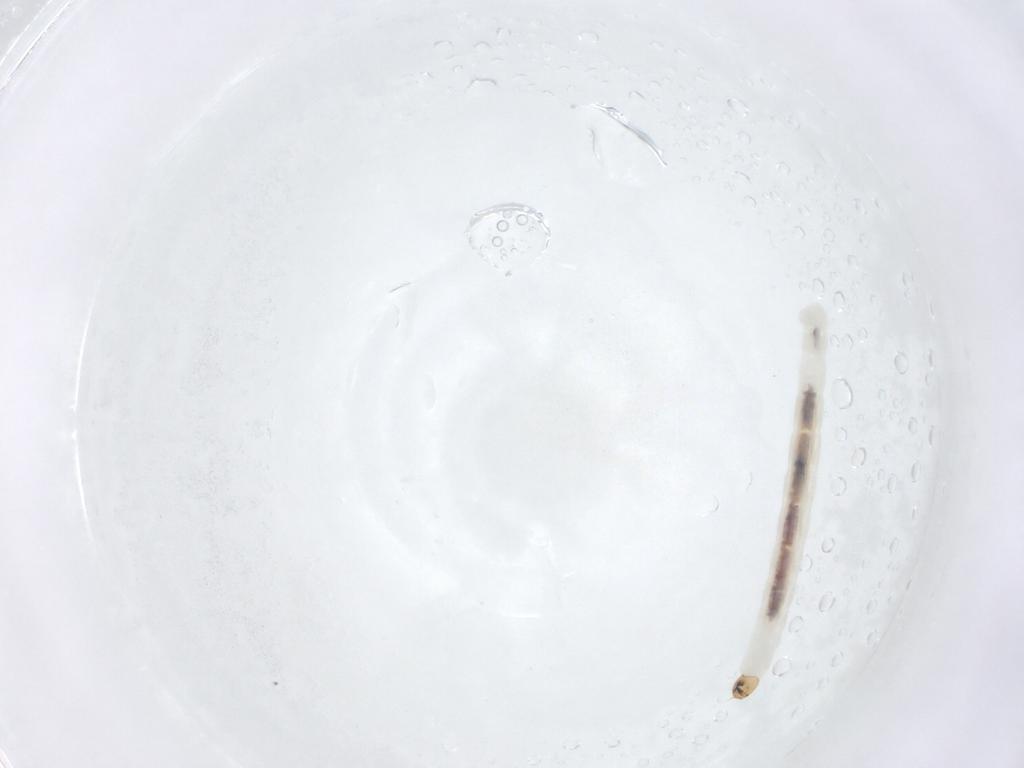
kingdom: Animalia
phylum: Arthropoda
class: Insecta
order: Diptera
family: Chironomidae
